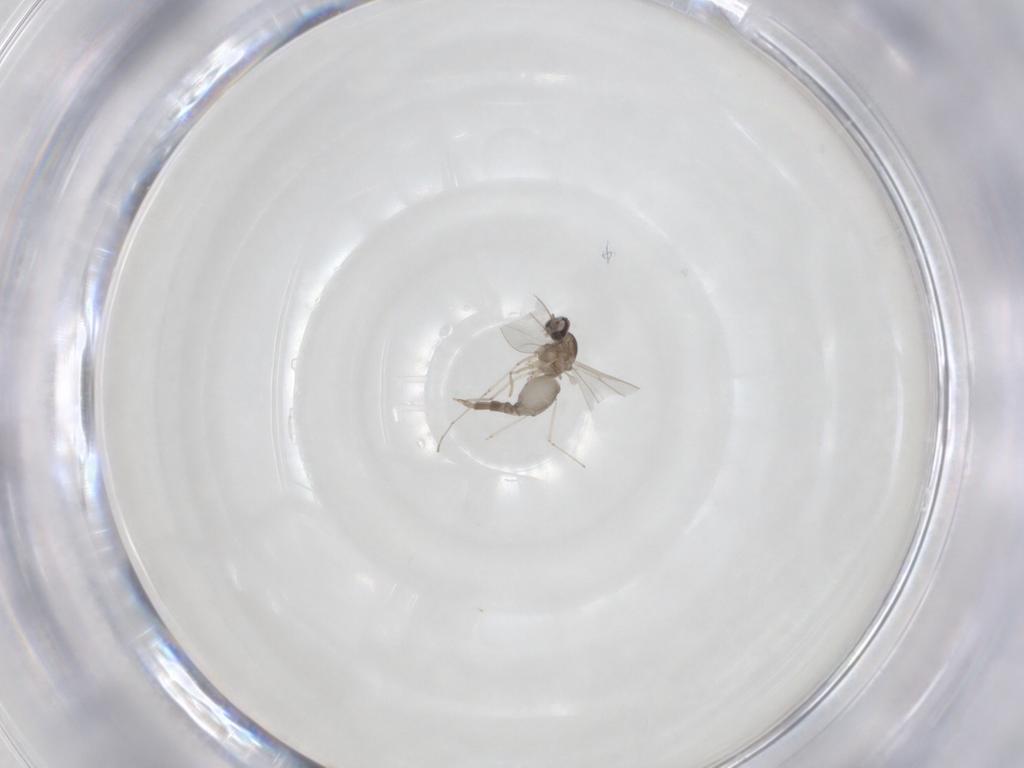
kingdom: Animalia
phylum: Arthropoda
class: Insecta
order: Diptera
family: Cecidomyiidae
